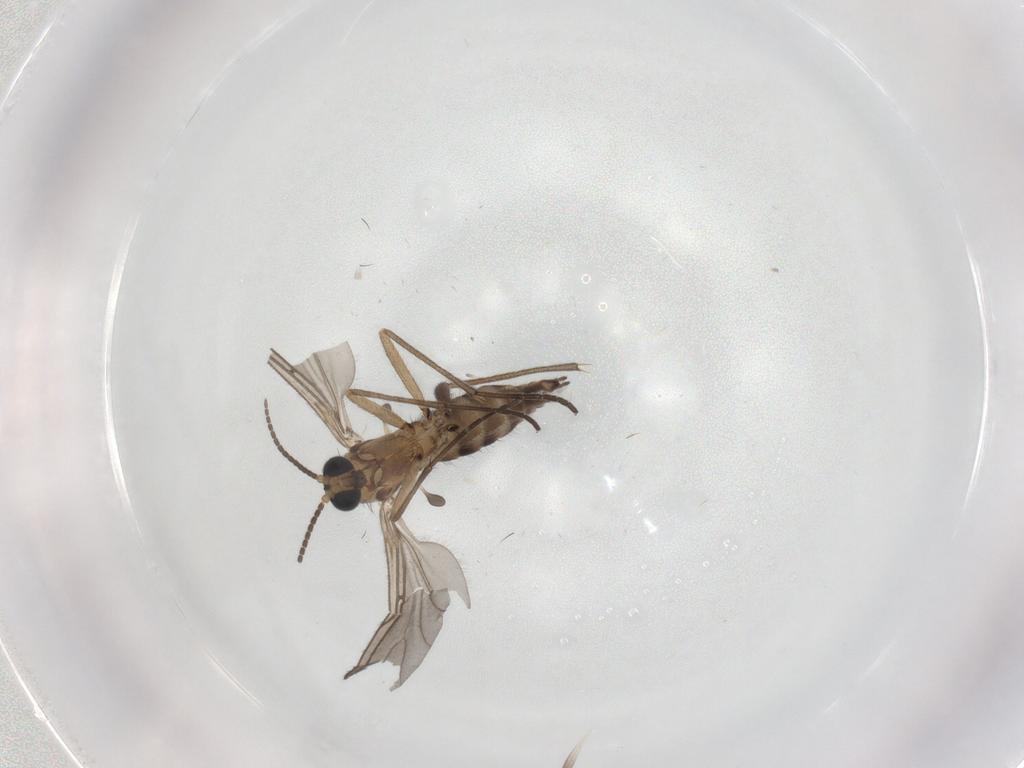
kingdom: Animalia
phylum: Arthropoda
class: Insecta
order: Diptera
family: Sciaridae
